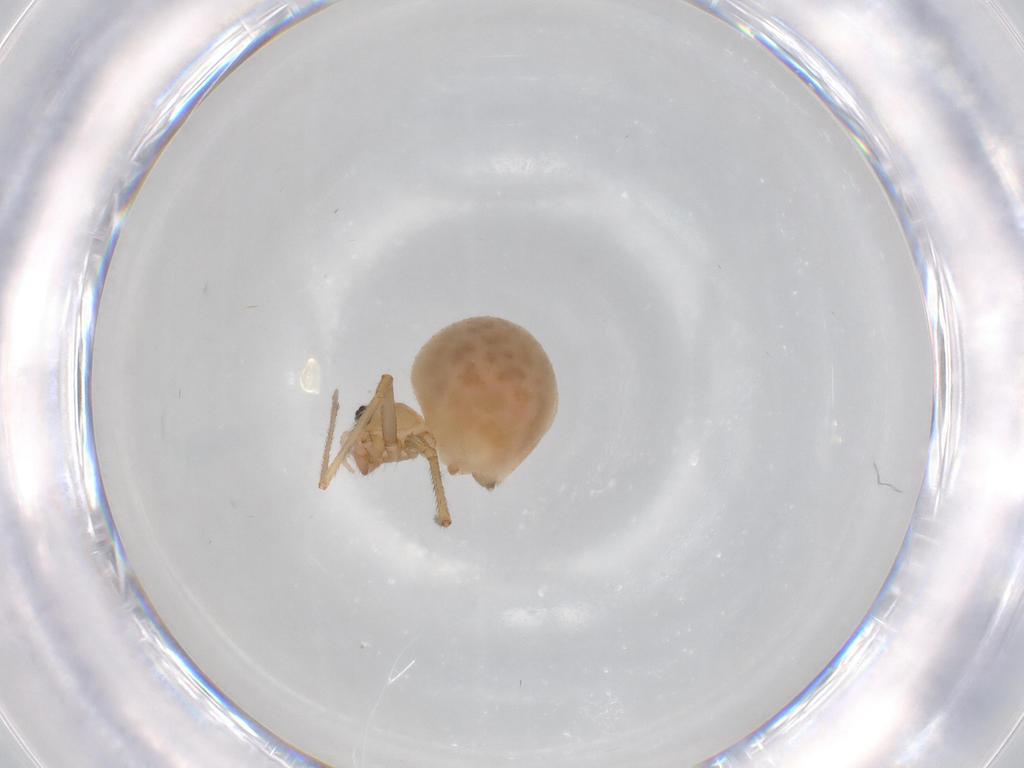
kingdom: Animalia
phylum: Arthropoda
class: Arachnida
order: Araneae
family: Pholcidae
